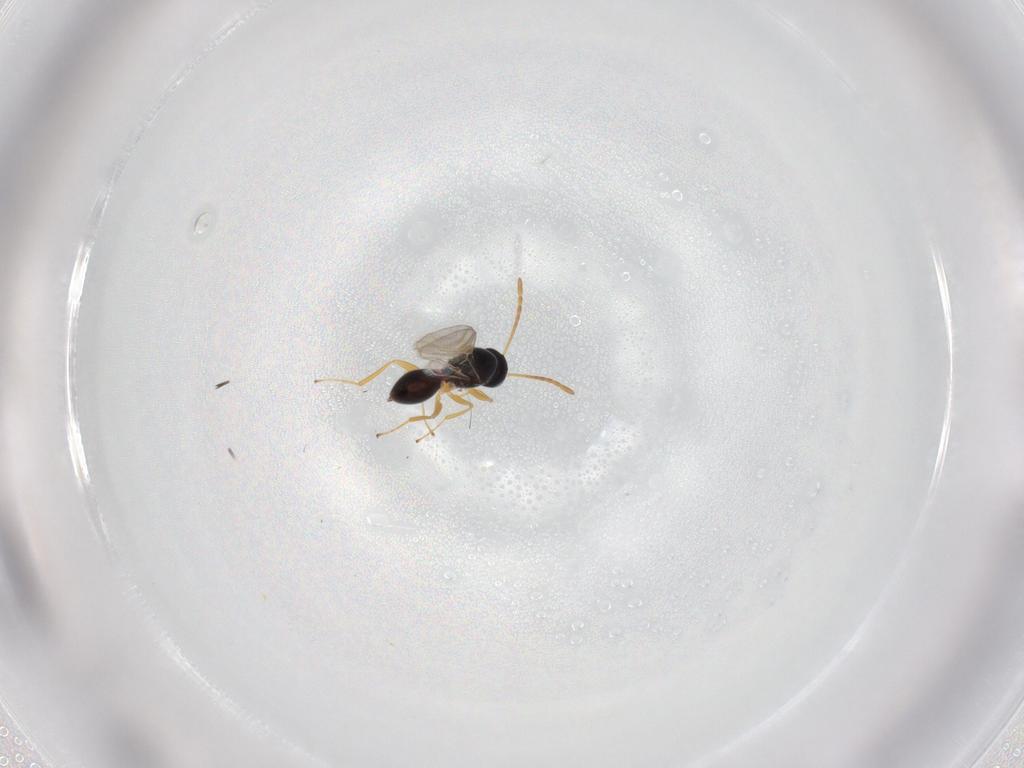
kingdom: Animalia
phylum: Arthropoda
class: Insecta
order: Hymenoptera
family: Figitidae
